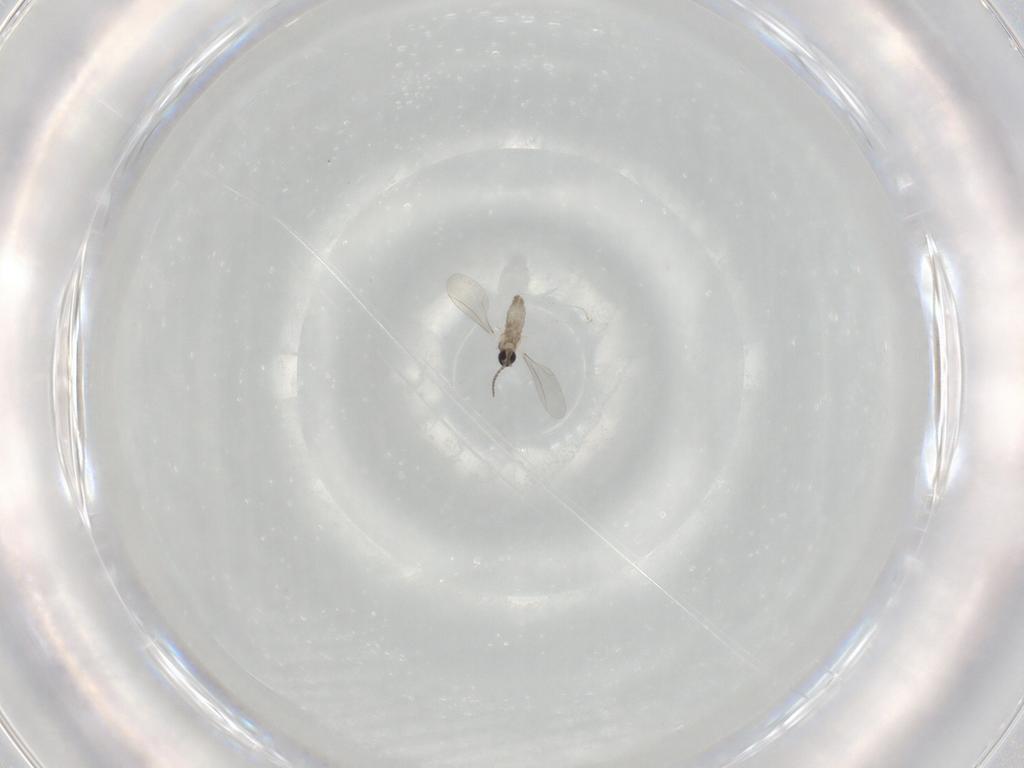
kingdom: Animalia
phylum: Arthropoda
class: Insecta
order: Diptera
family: Cecidomyiidae
